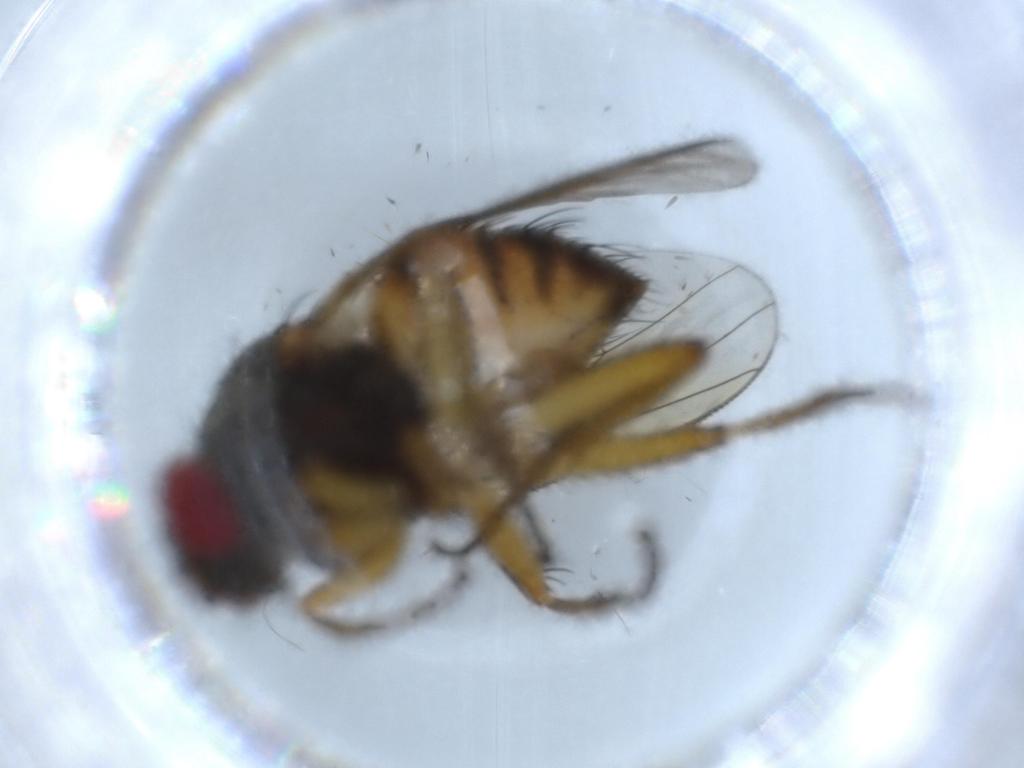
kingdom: Animalia
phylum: Arthropoda
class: Insecta
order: Diptera
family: Muscidae
